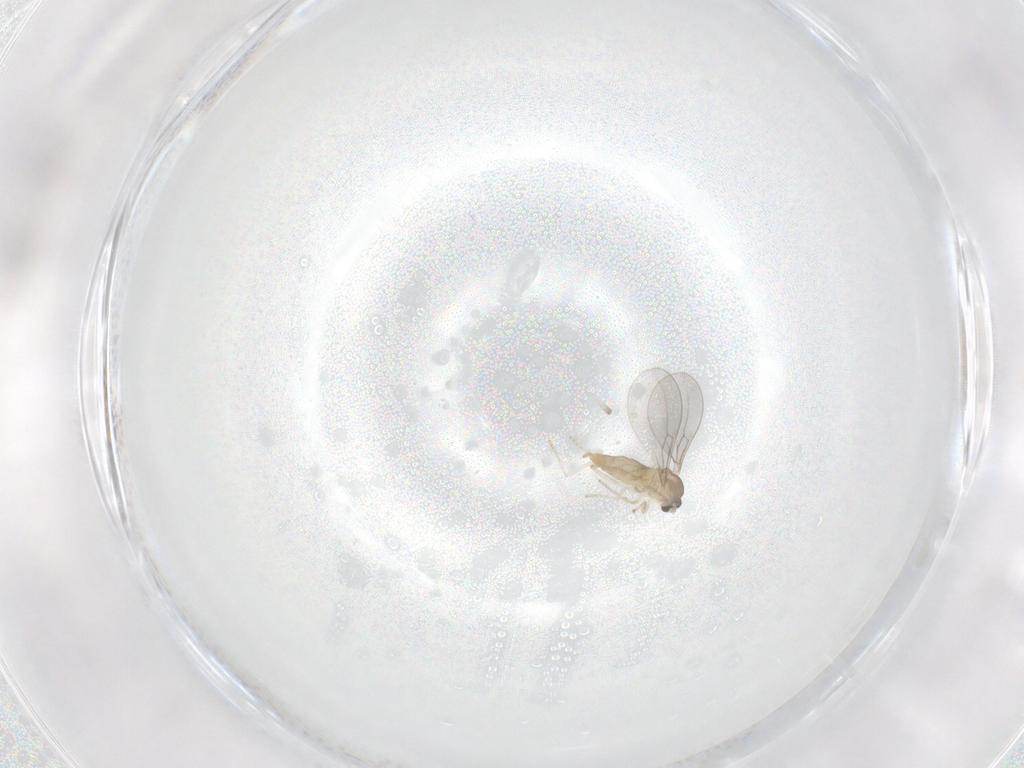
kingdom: Animalia
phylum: Arthropoda
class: Insecta
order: Diptera
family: Cecidomyiidae
